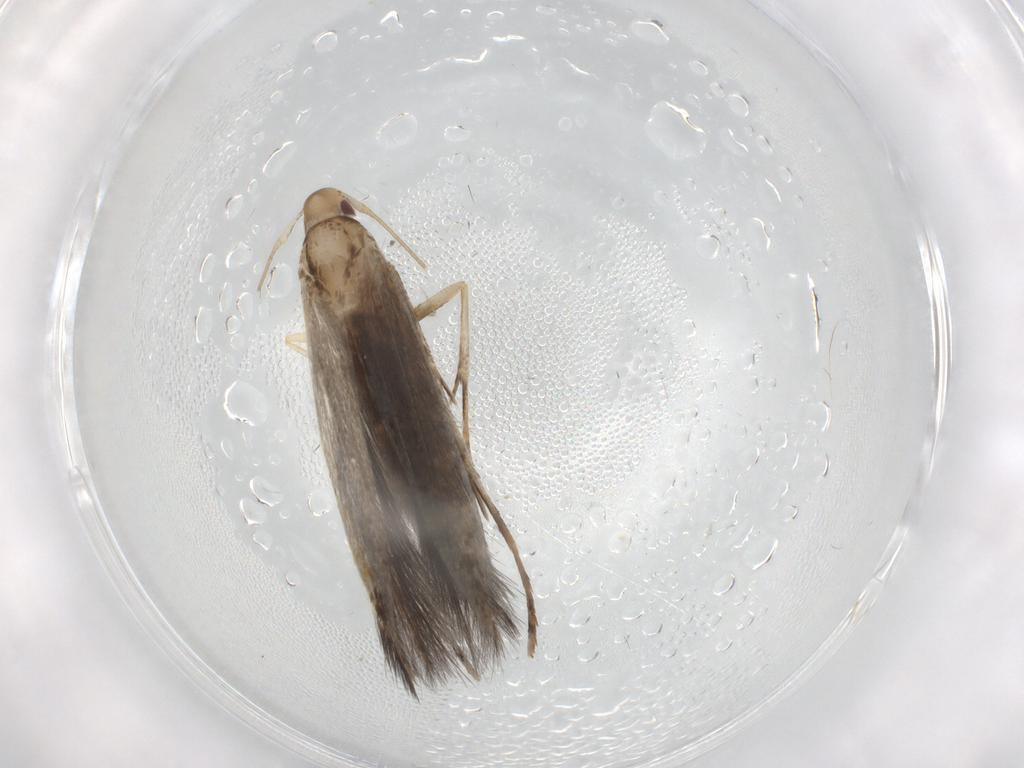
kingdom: Animalia
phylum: Arthropoda
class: Insecta
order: Lepidoptera
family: Cosmopterigidae
